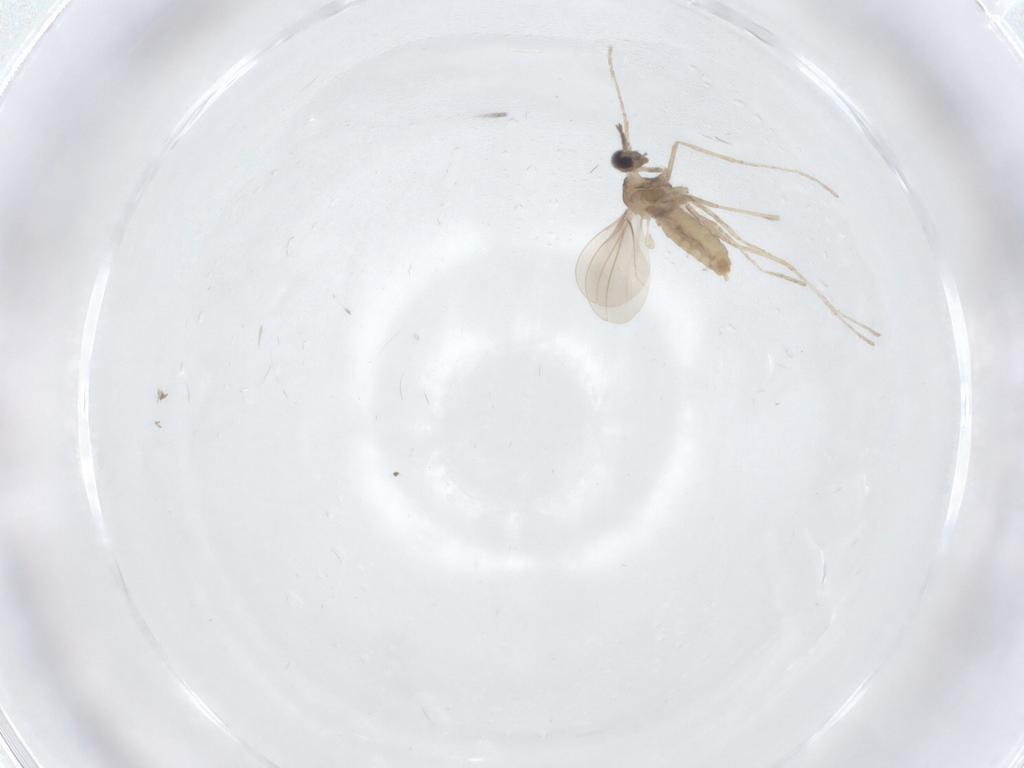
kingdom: Animalia
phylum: Arthropoda
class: Insecta
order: Diptera
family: Cecidomyiidae
